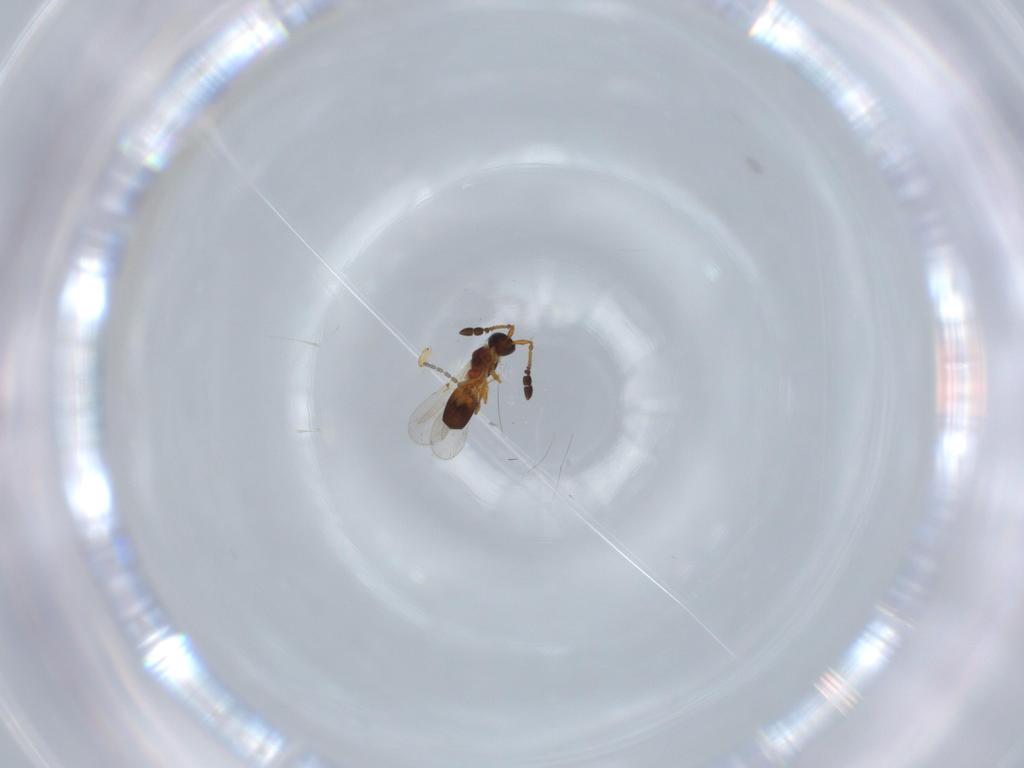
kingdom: Animalia
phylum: Arthropoda
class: Insecta
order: Hymenoptera
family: Diapriidae
